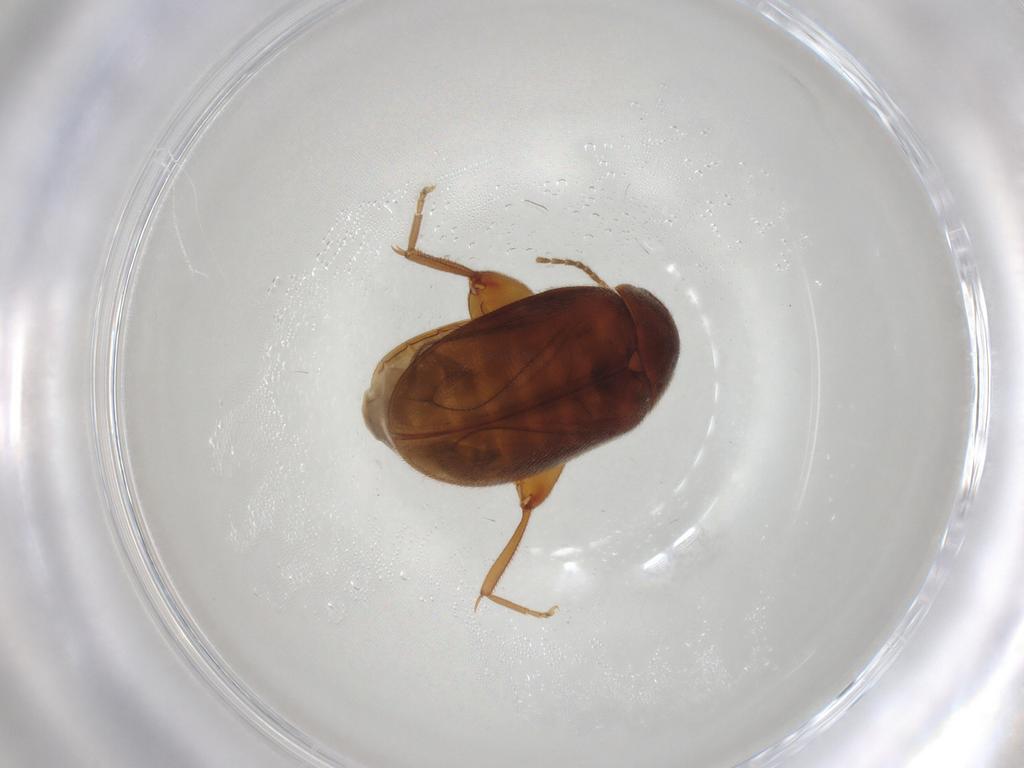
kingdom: Animalia
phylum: Arthropoda
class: Insecta
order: Coleoptera
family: Scirtidae
